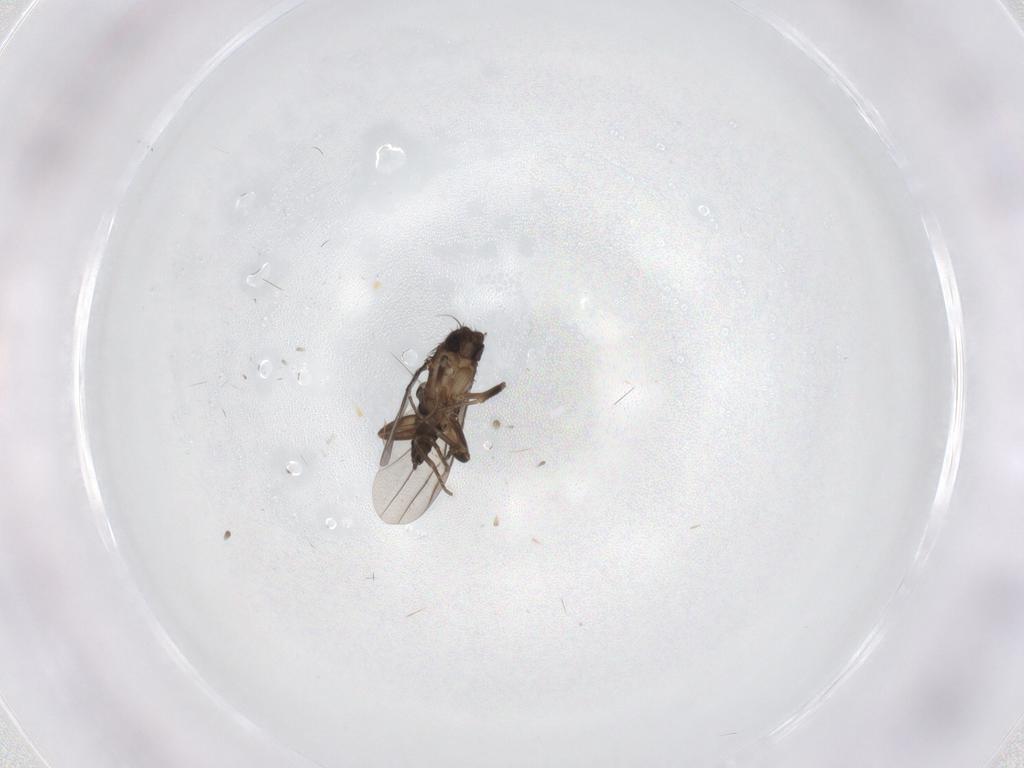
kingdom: Animalia
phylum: Arthropoda
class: Insecta
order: Diptera
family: Phoridae
